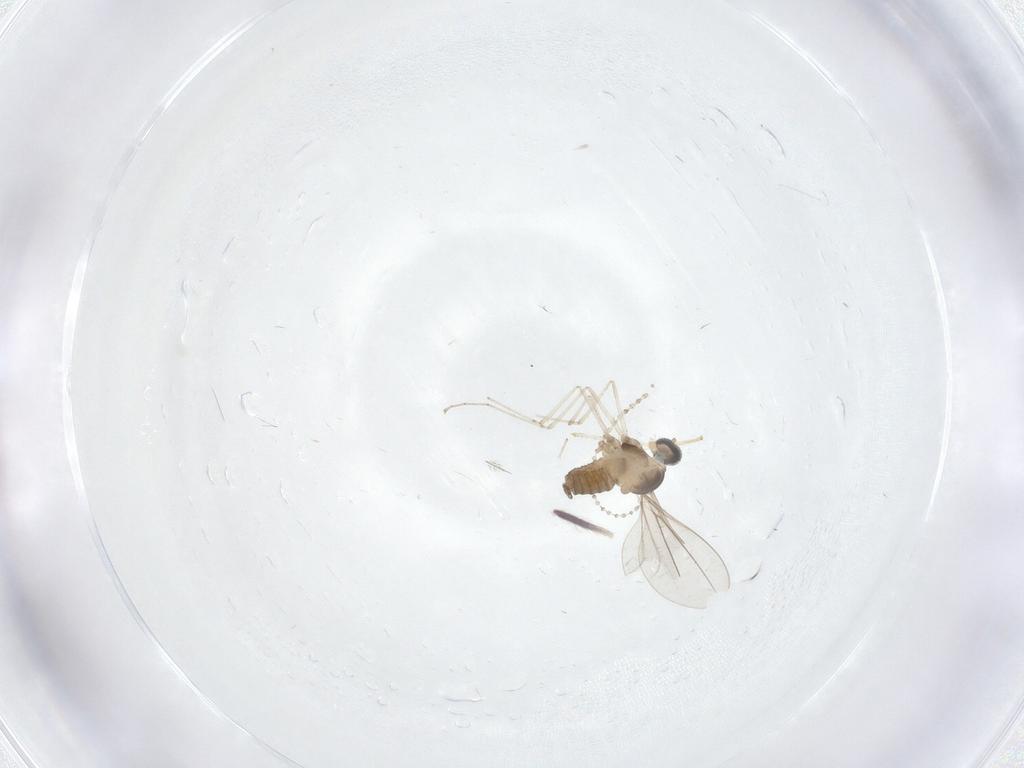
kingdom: Animalia
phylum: Arthropoda
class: Insecta
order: Diptera
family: Cecidomyiidae
